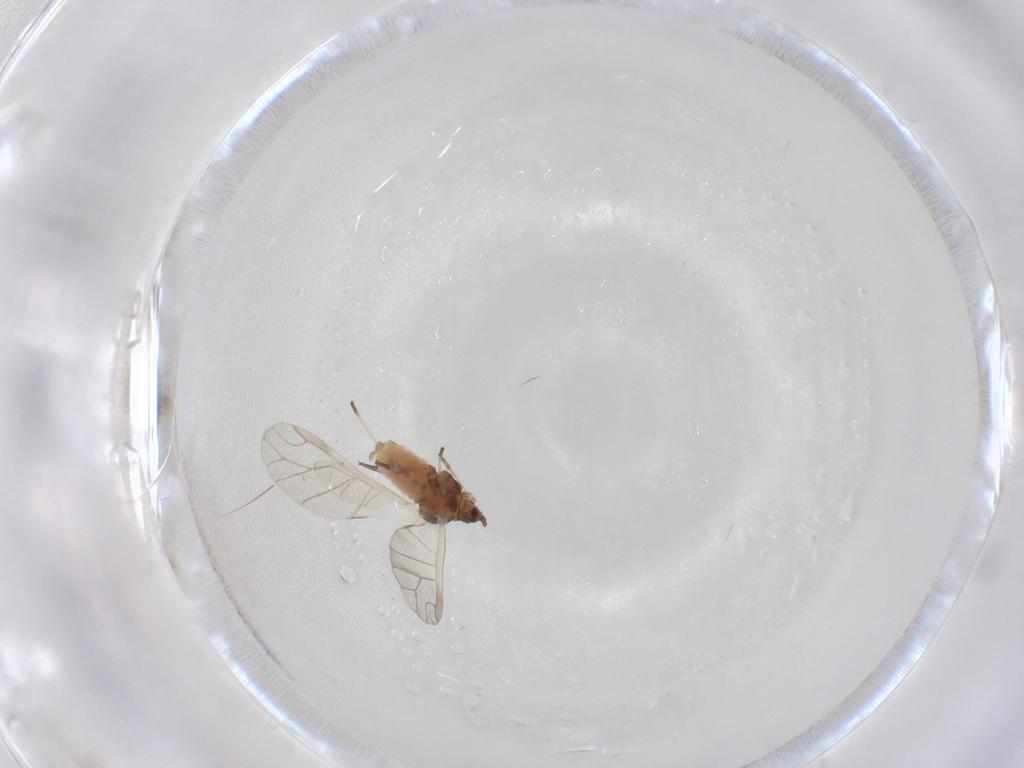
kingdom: Animalia
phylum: Arthropoda
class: Insecta
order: Hemiptera
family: Aphididae
